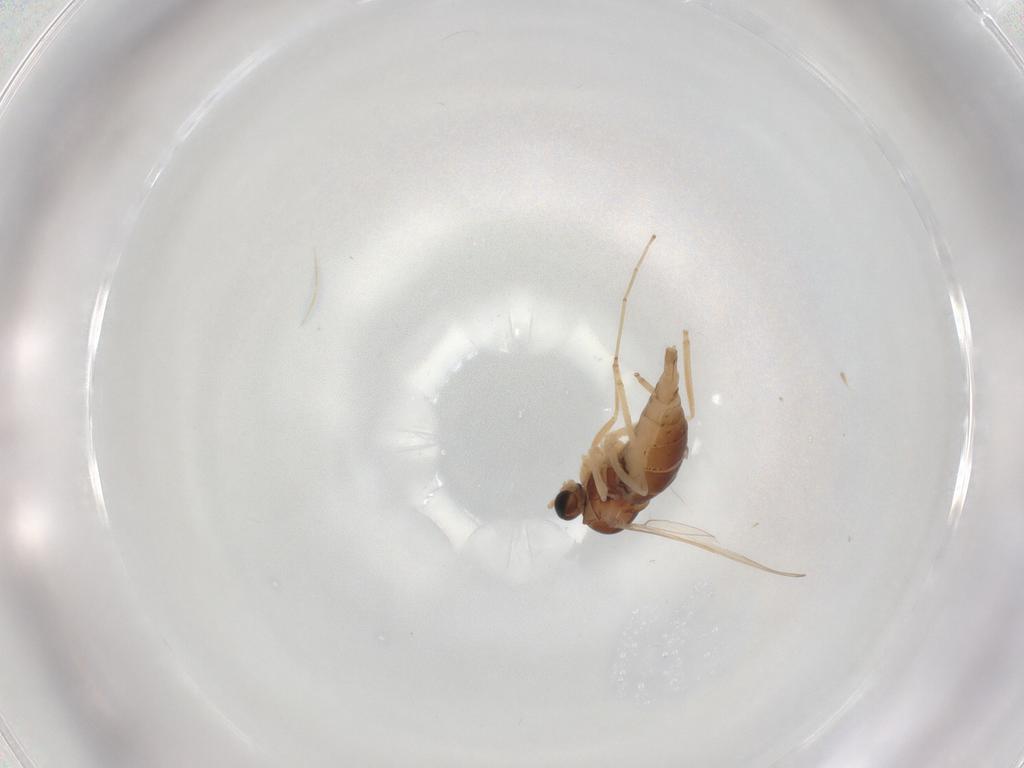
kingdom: Animalia
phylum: Arthropoda
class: Insecta
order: Diptera
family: Cecidomyiidae
